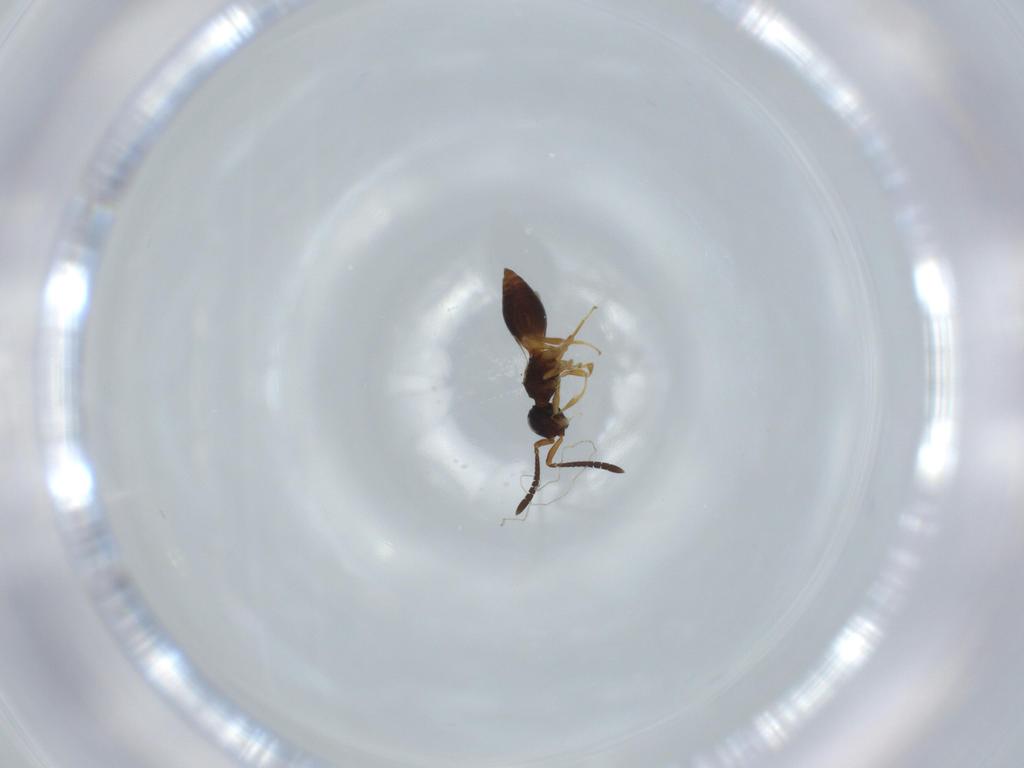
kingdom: Animalia
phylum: Arthropoda
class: Insecta
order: Hymenoptera
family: Megaspilidae
